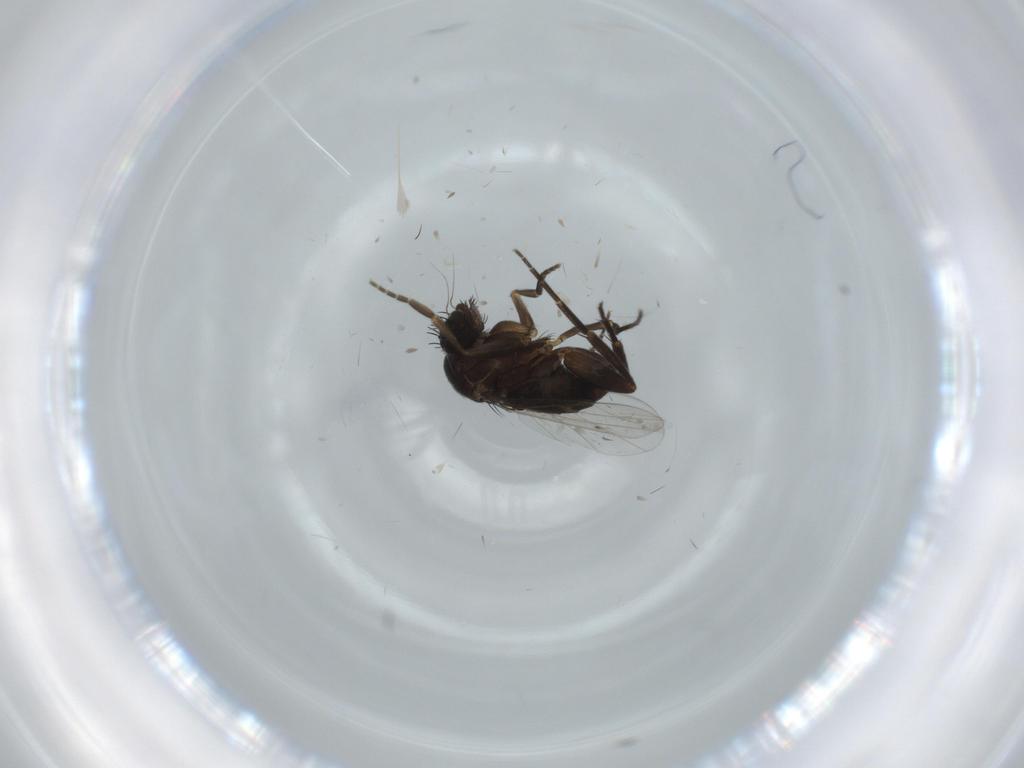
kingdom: Animalia
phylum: Arthropoda
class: Insecta
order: Diptera
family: Phoridae
